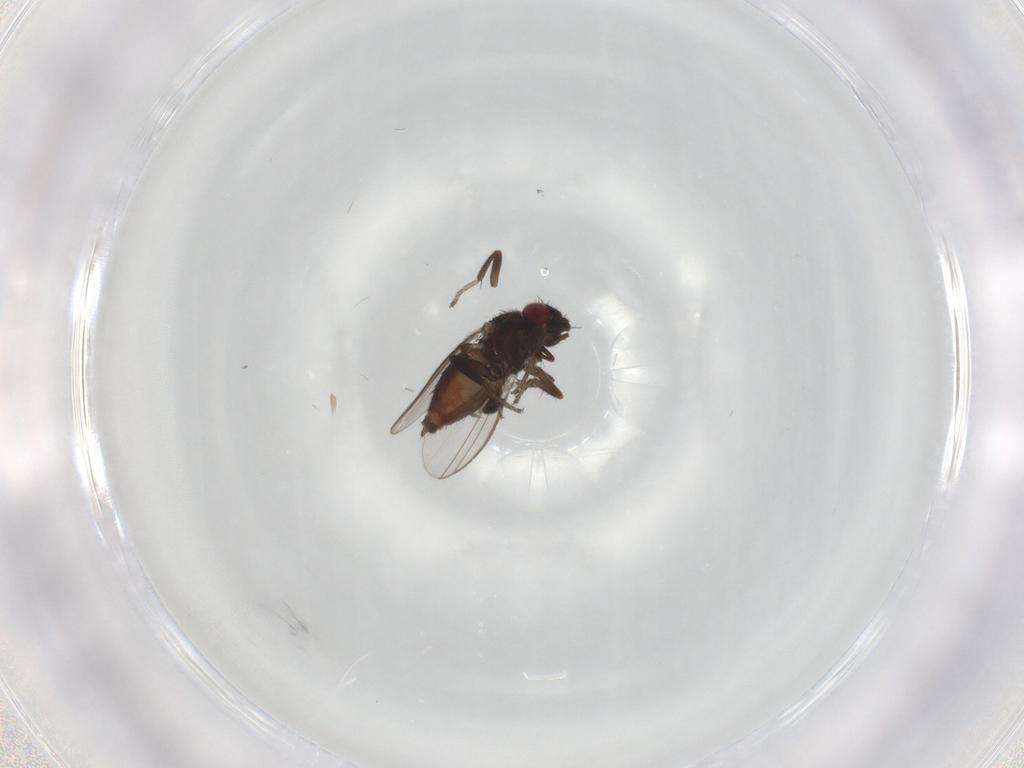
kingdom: Animalia
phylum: Arthropoda
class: Insecta
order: Diptera
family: Milichiidae
